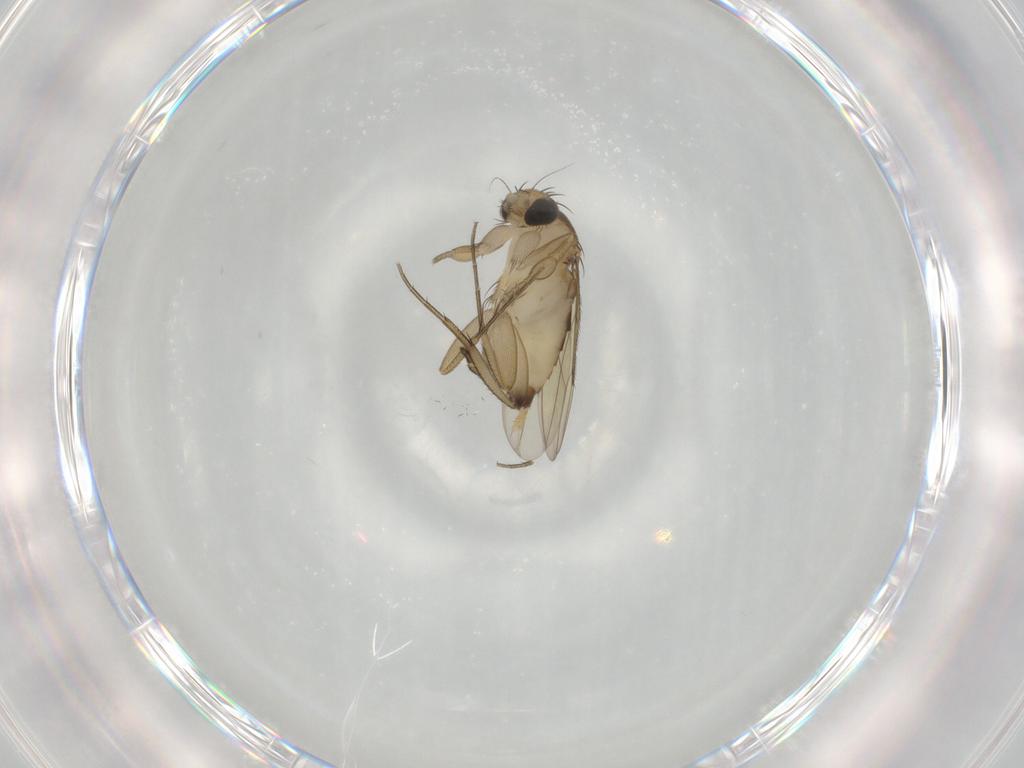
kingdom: Animalia
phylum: Arthropoda
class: Insecta
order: Diptera
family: Phoridae
